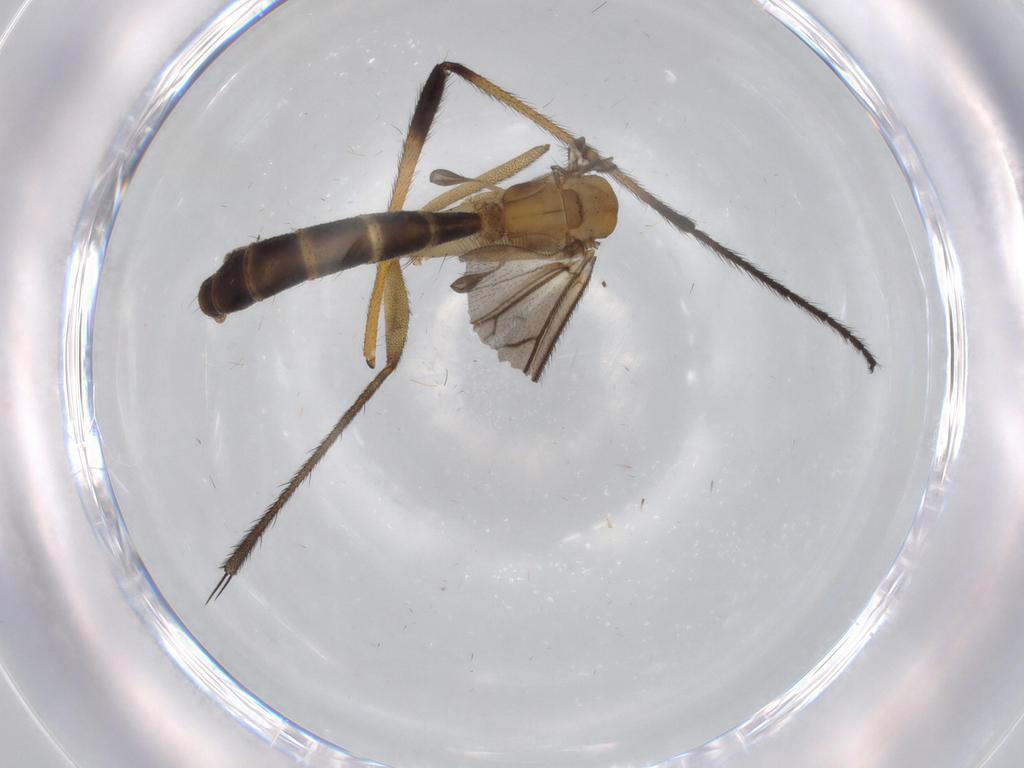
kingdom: Animalia
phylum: Arthropoda
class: Insecta
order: Diptera
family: Phoridae
